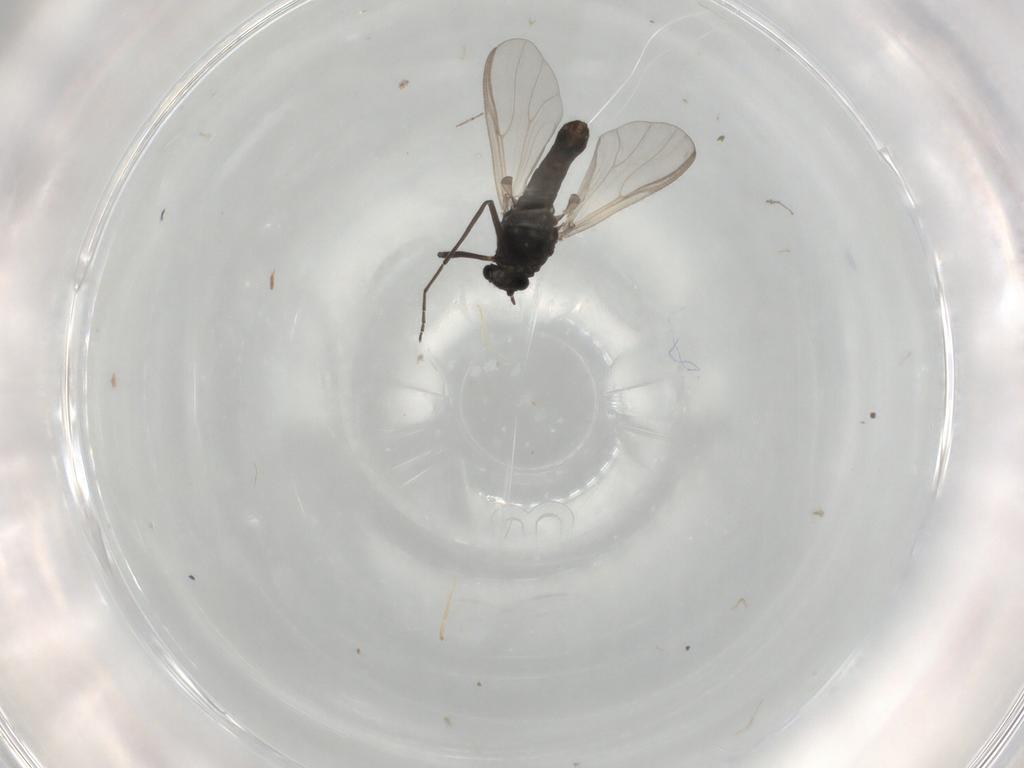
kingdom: Animalia
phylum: Arthropoda
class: Insecta
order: Diptera
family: Chironomidae
